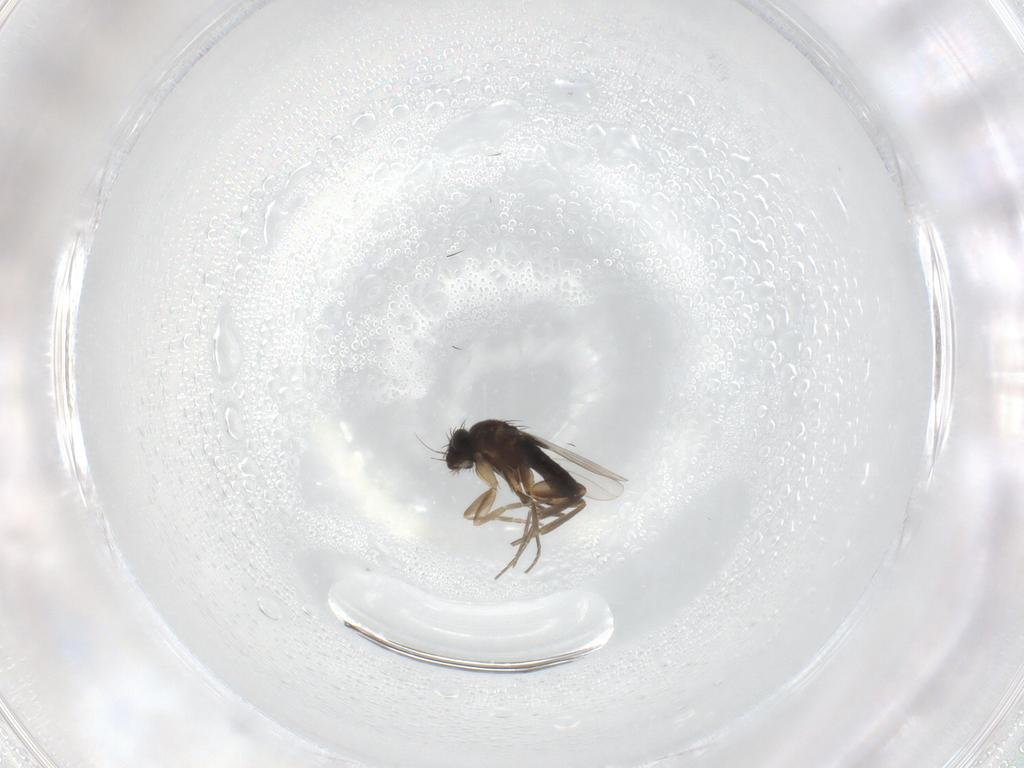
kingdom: Animalia
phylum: Arthropoda
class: Insecta
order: Diptera
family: Phoridae
